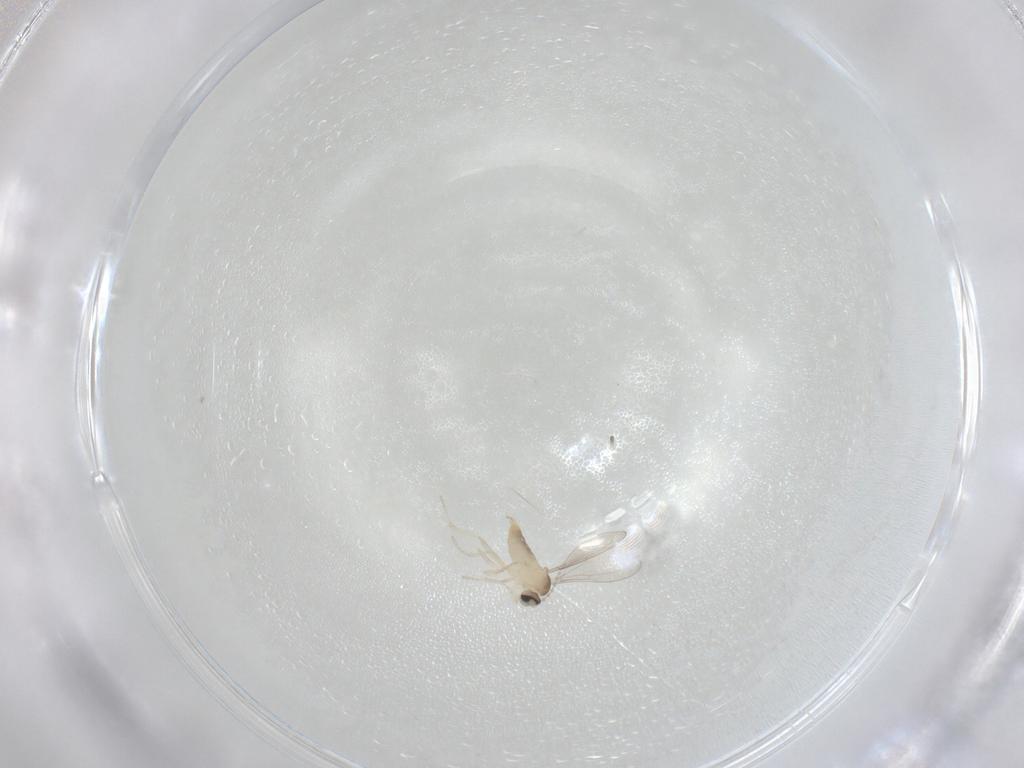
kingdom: Animalia
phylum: Arthropoda
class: Insecta
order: Diptera
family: Cecidomyiidae
